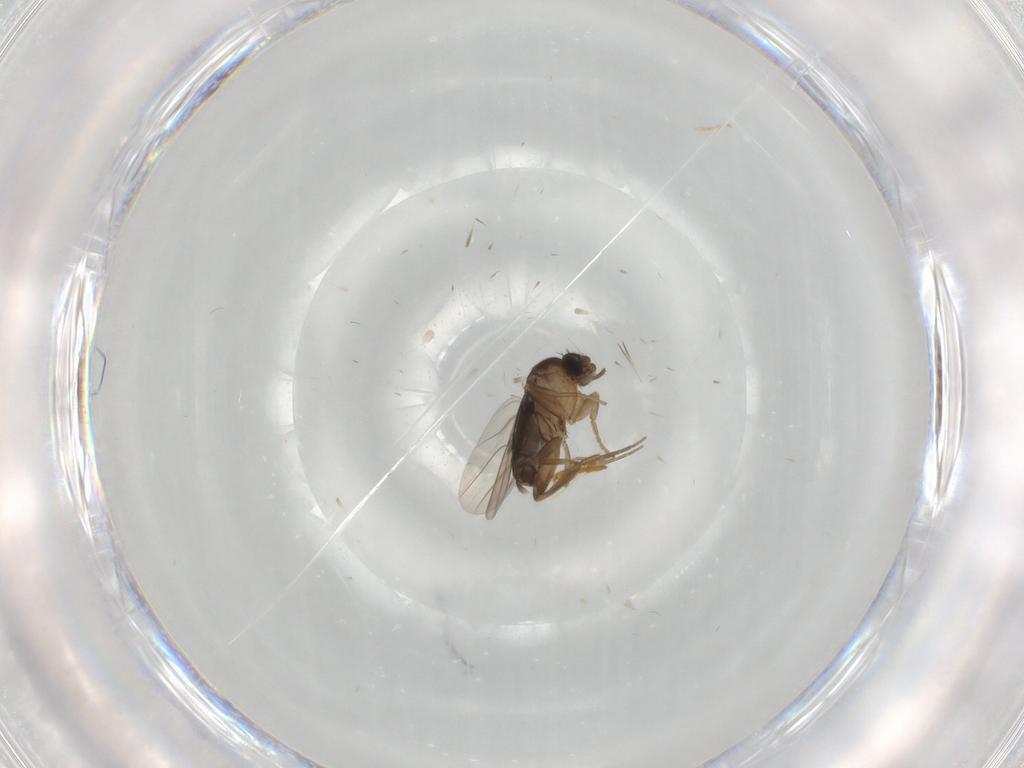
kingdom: Animalia
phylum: Arthropoda
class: Insecta
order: Diptera
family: Phoridae
